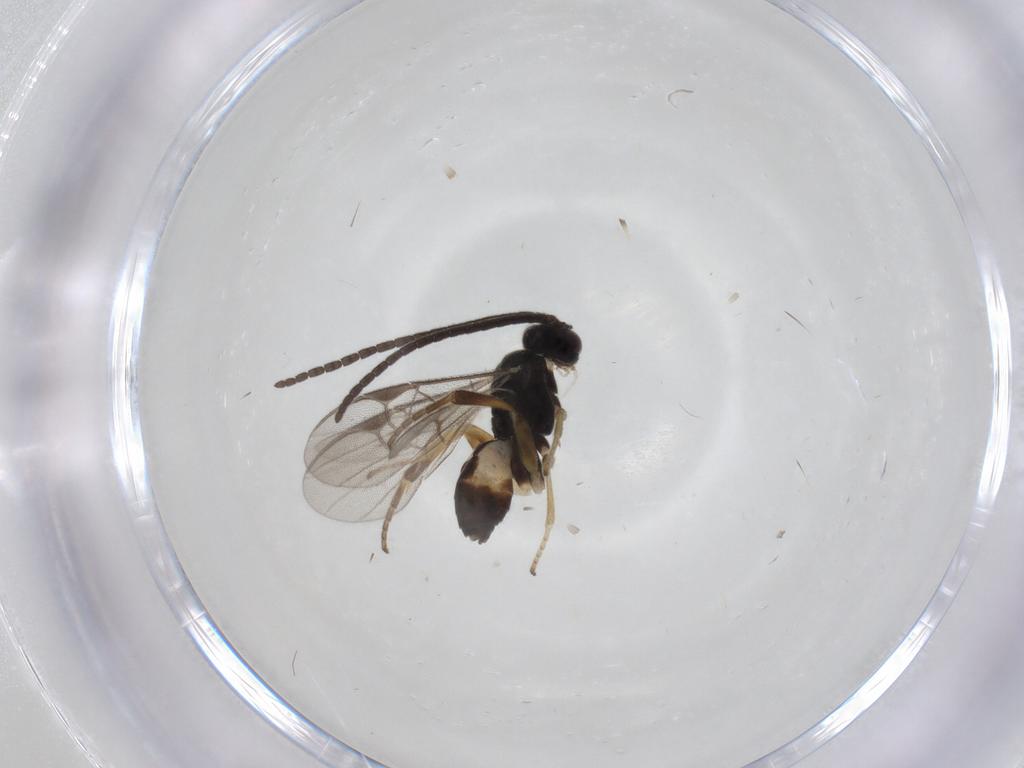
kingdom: Animalia
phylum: Arthropoda
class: Insecta
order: Hymenoptera
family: Braconidae
